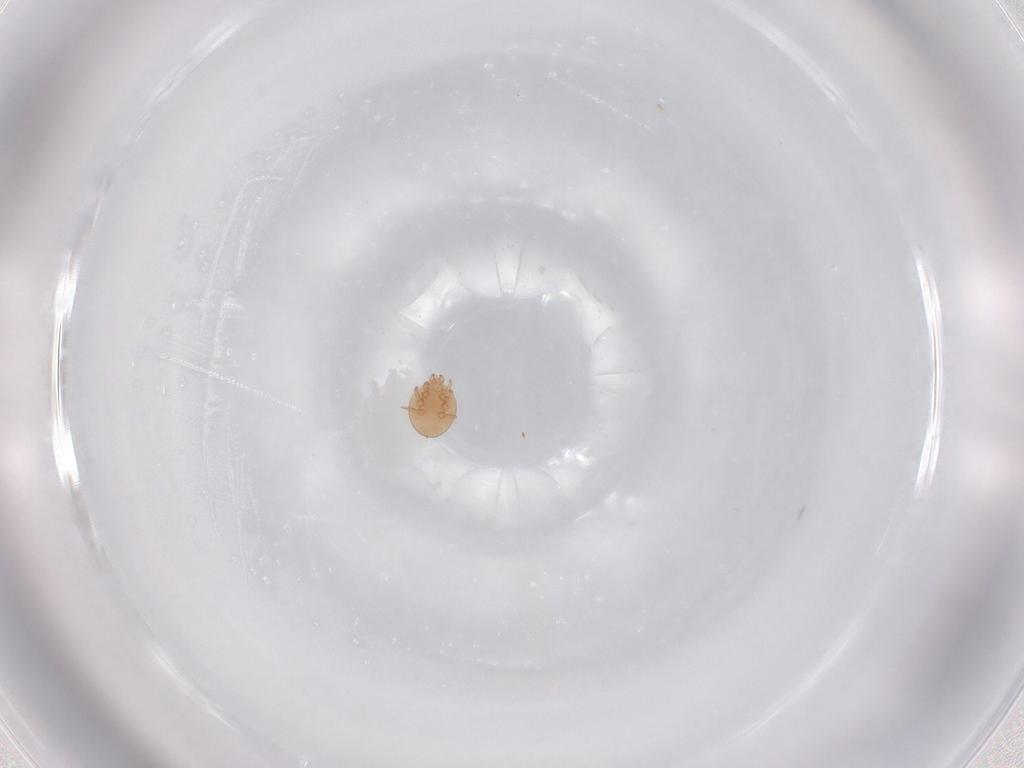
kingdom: Animalia
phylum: Arthropoda
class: Arachnida
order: Mesostigmata
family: Trematuridae
